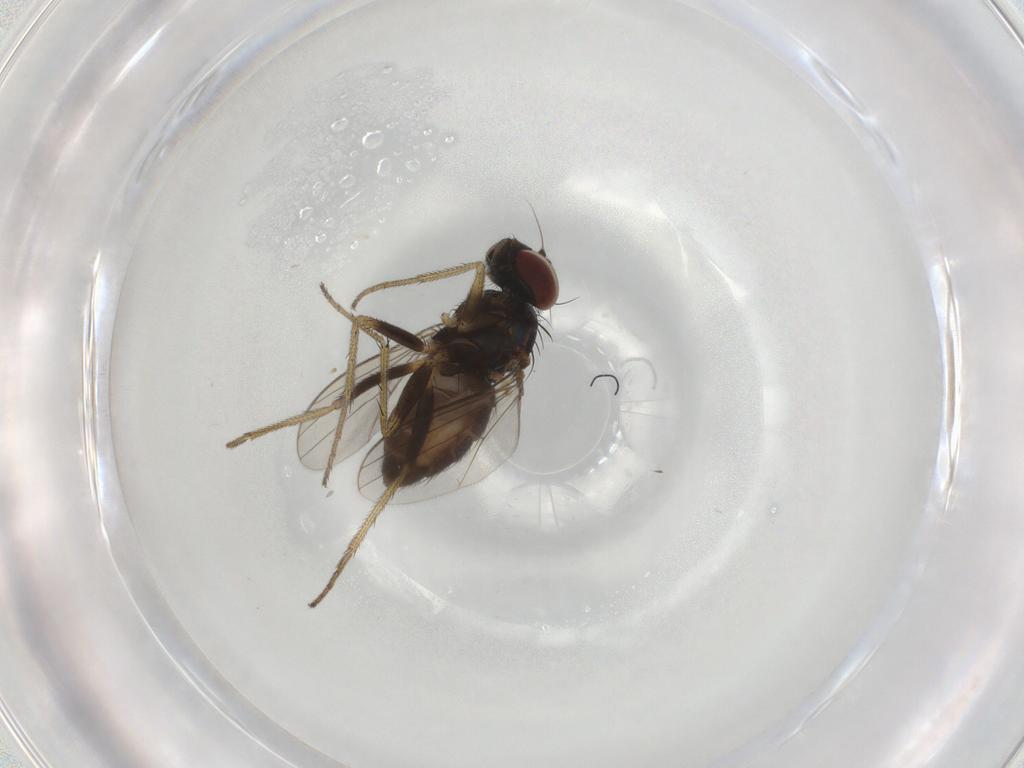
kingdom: Animalia
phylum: Arthropoda
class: Insecta
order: Diptera
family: Dolichopodidae
